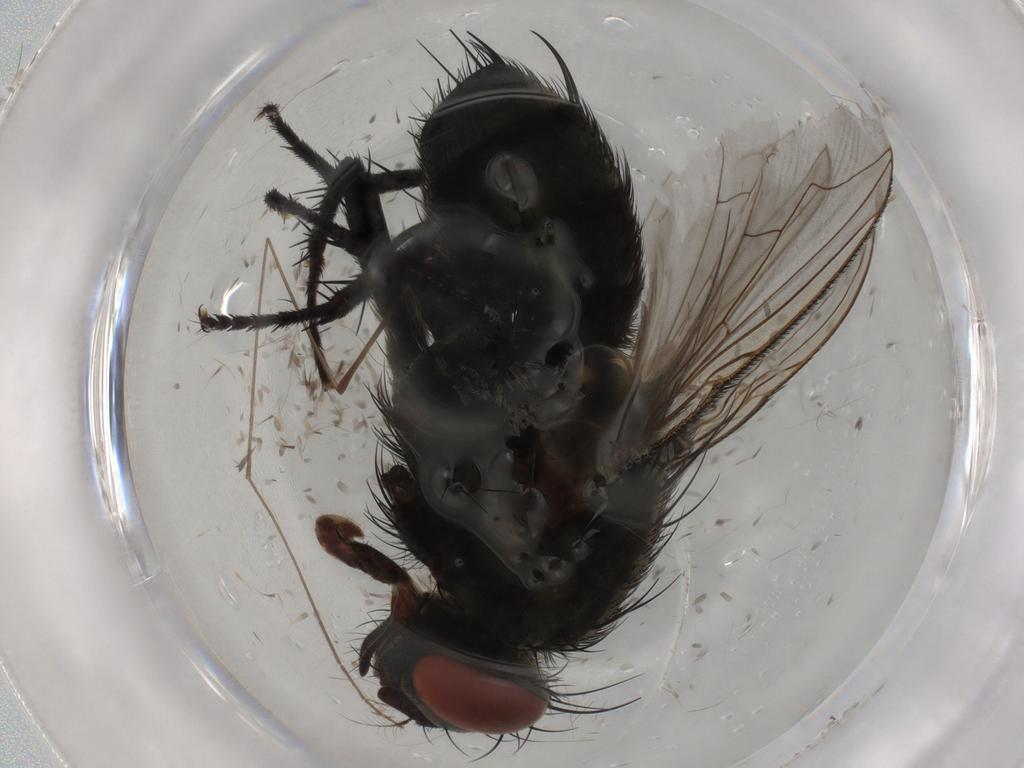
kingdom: Animalia
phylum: Arthropoda
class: Insecta
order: Diptera
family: Sarcophagidae
